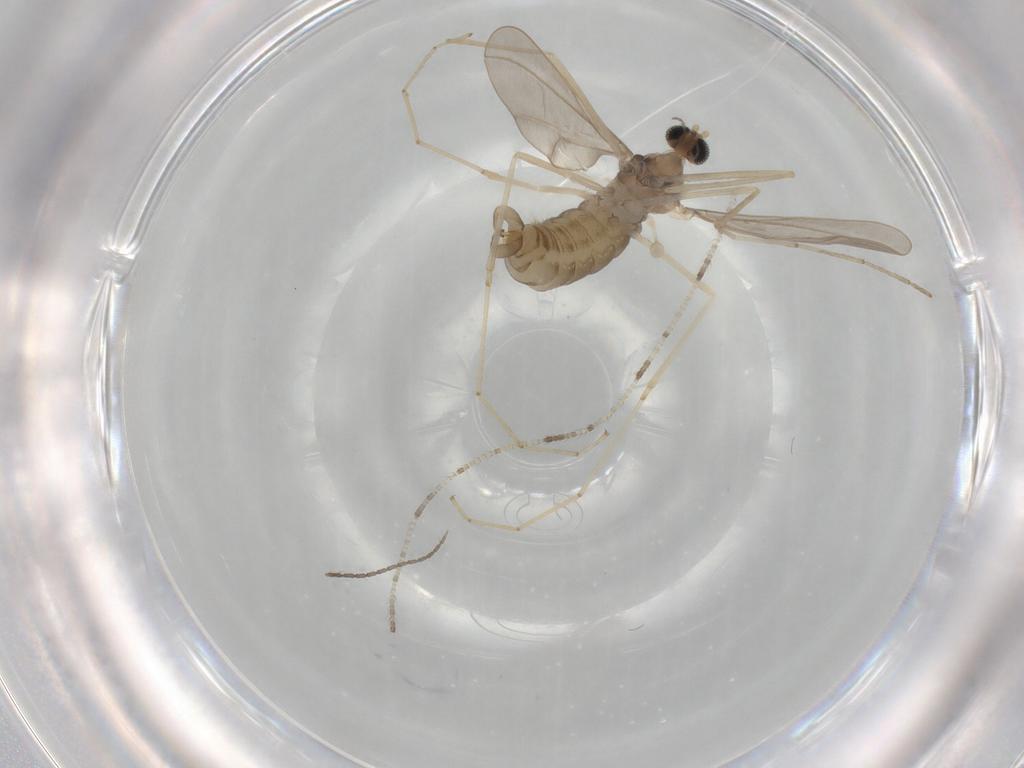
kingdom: Animalia
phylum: Arthropoda
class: Insecta
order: Diptera
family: Cecidomyiidae
